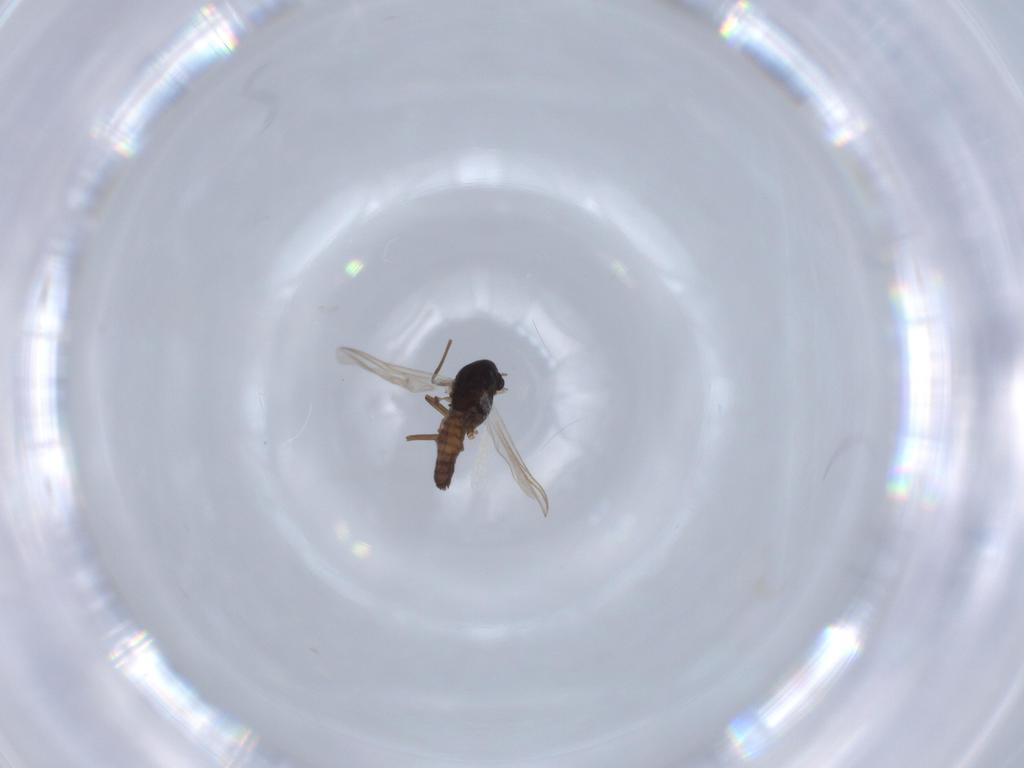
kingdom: Animalia
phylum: Arthropoda
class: Insecta
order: Diptera
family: Chironomidae
